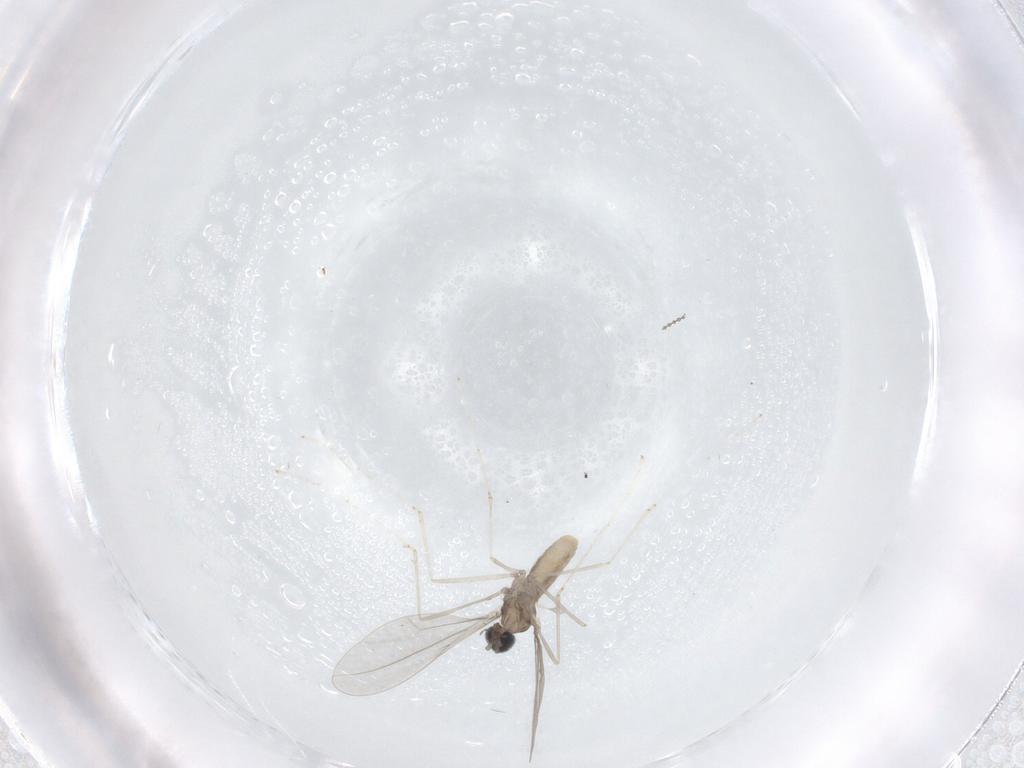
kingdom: Animalia
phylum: Arthropoda
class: Insecta
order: Diptera
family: Cecidomyiidae
